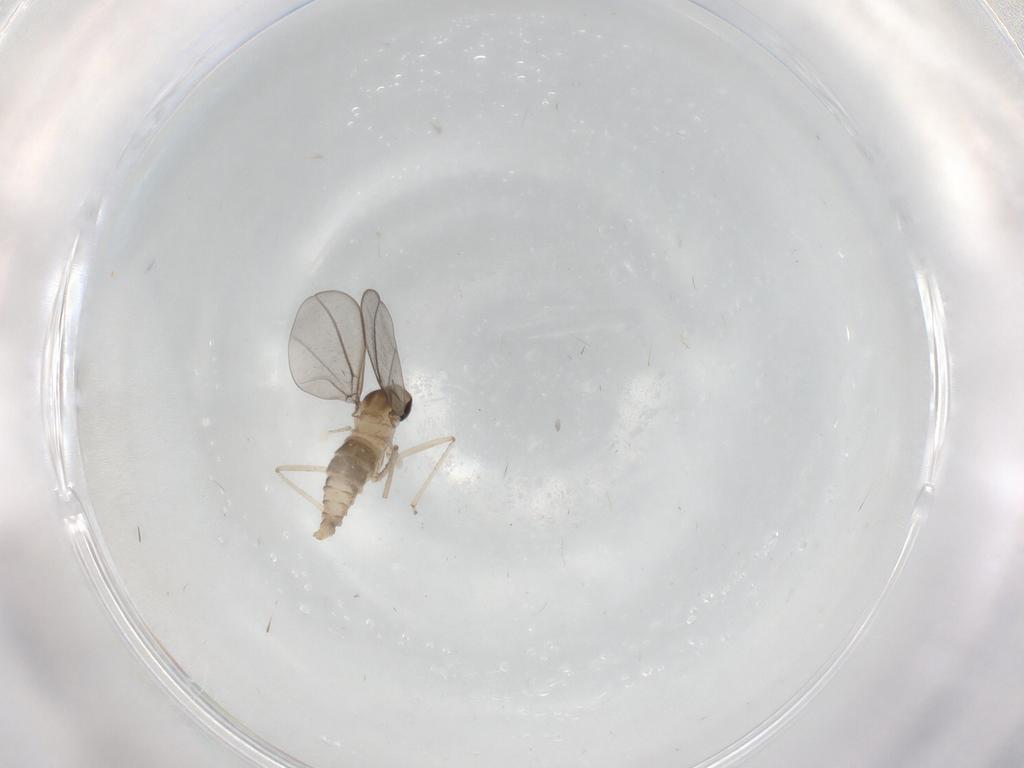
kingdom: Animalia
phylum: Arthropoda
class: Insecta
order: Diptera
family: Cecidomyiidae
